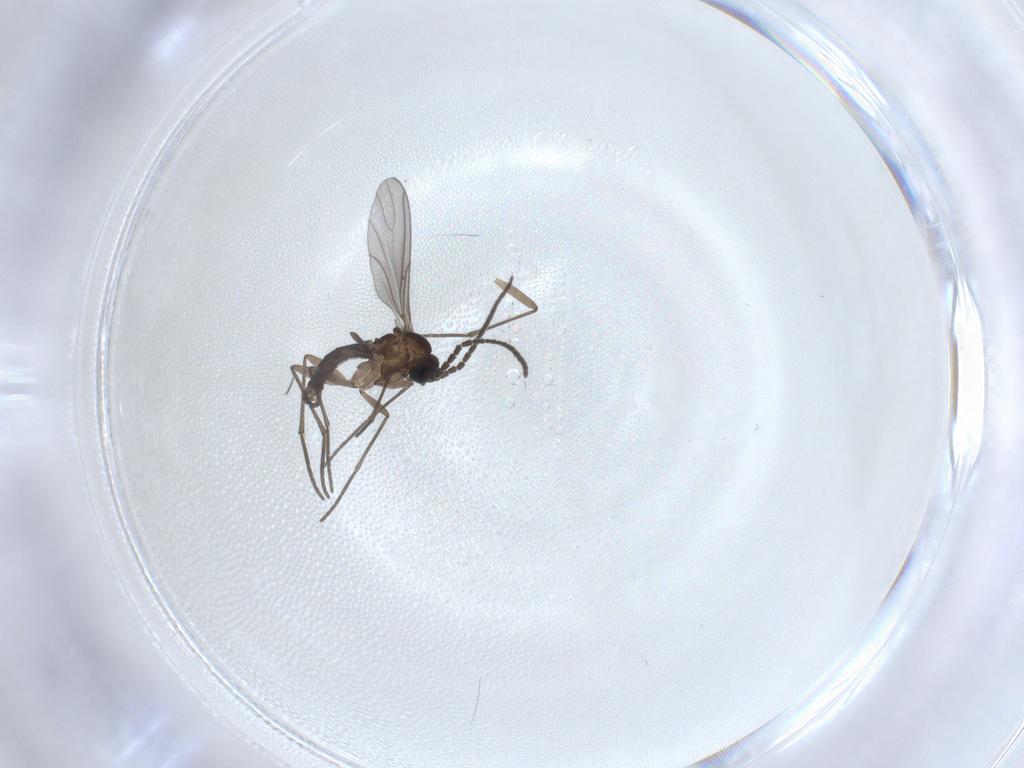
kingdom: Animalia
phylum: Arthropoda
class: Insecta
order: Diptera
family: Sciaridae
